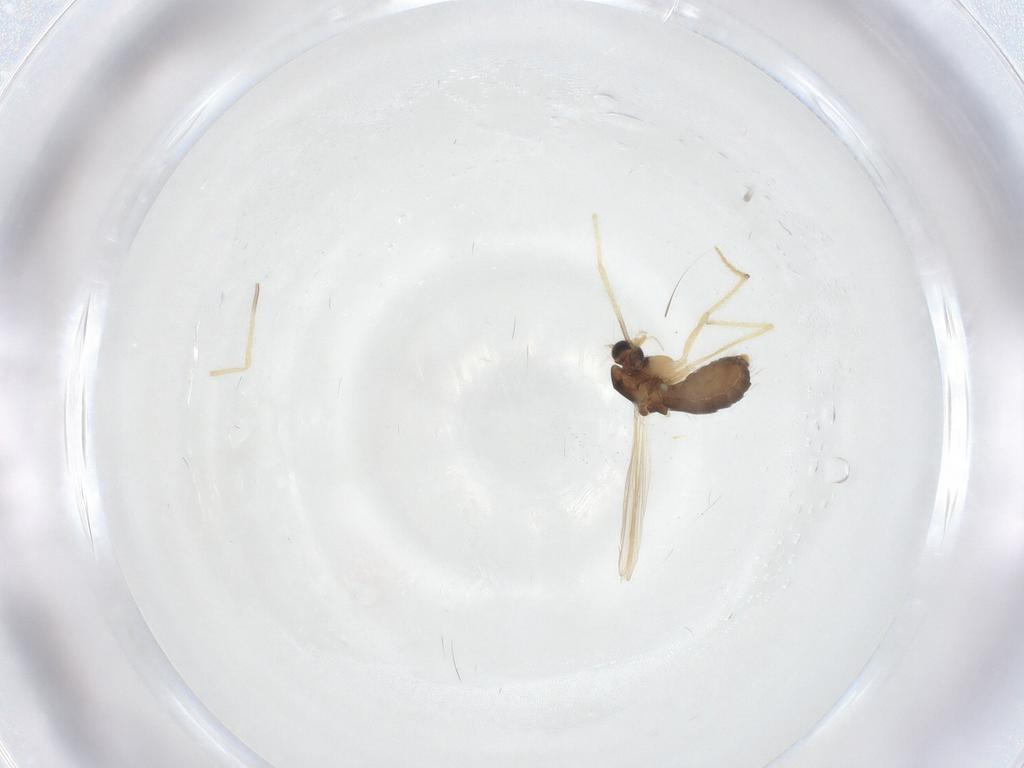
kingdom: Animalia
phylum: Arthropoda
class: Insecta
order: Diptera
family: Chironomidae
